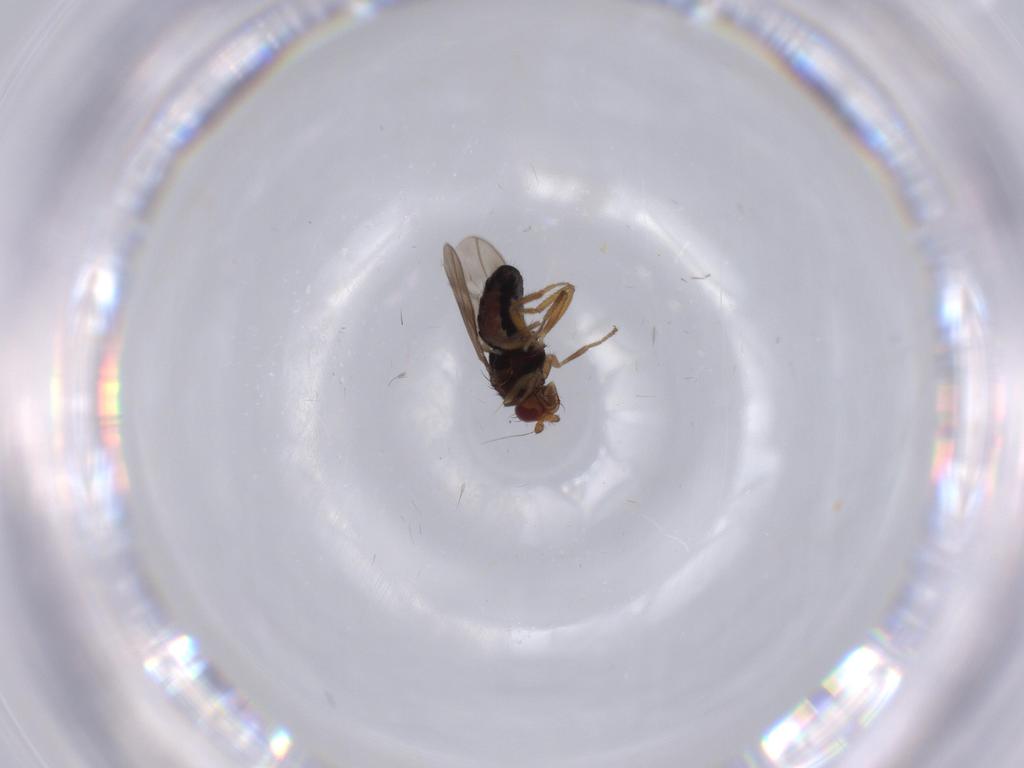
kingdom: Animalia
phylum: Arthropoda
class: Insecta
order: Diptera
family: Sphaeroceridae
